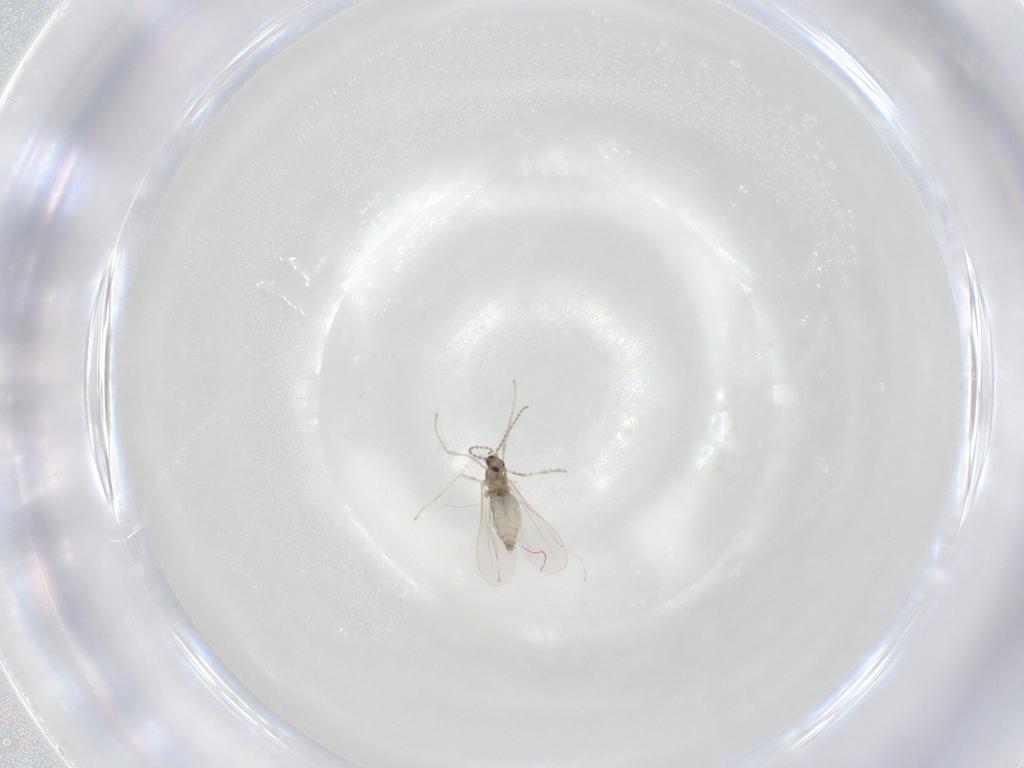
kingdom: Animalia
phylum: Arthropoda
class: Insecta
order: Diptera
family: Cecidomyiidae
